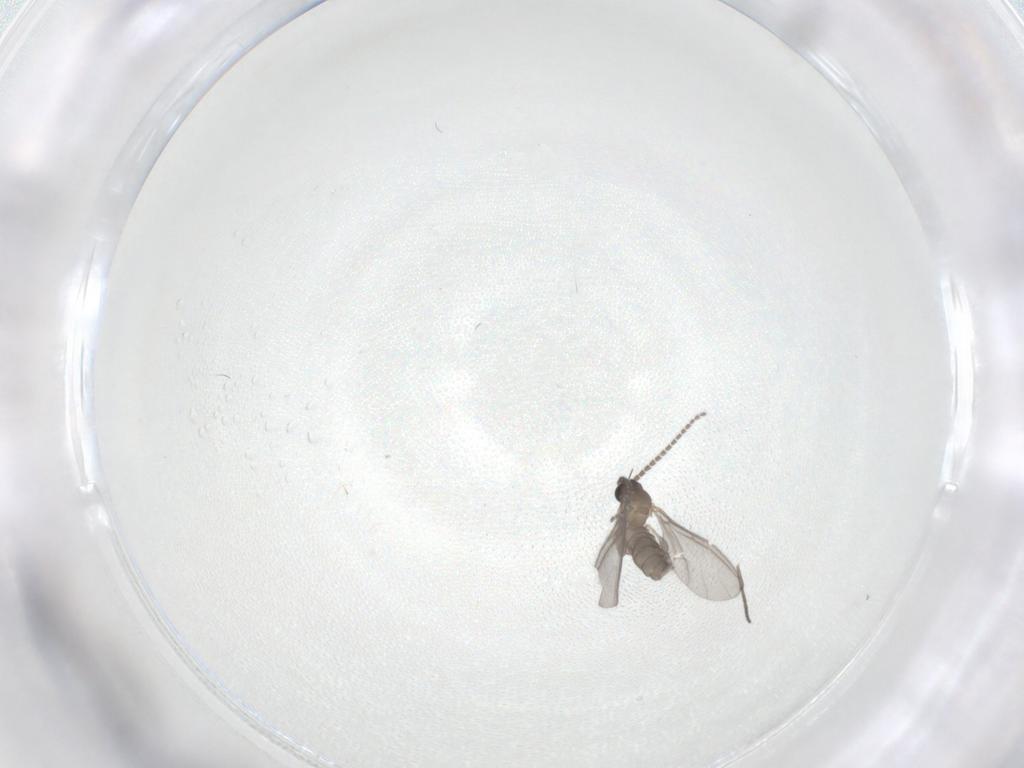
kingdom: Animalia
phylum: Arthropoda
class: Insecta
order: Diptera
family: Sciaridae
